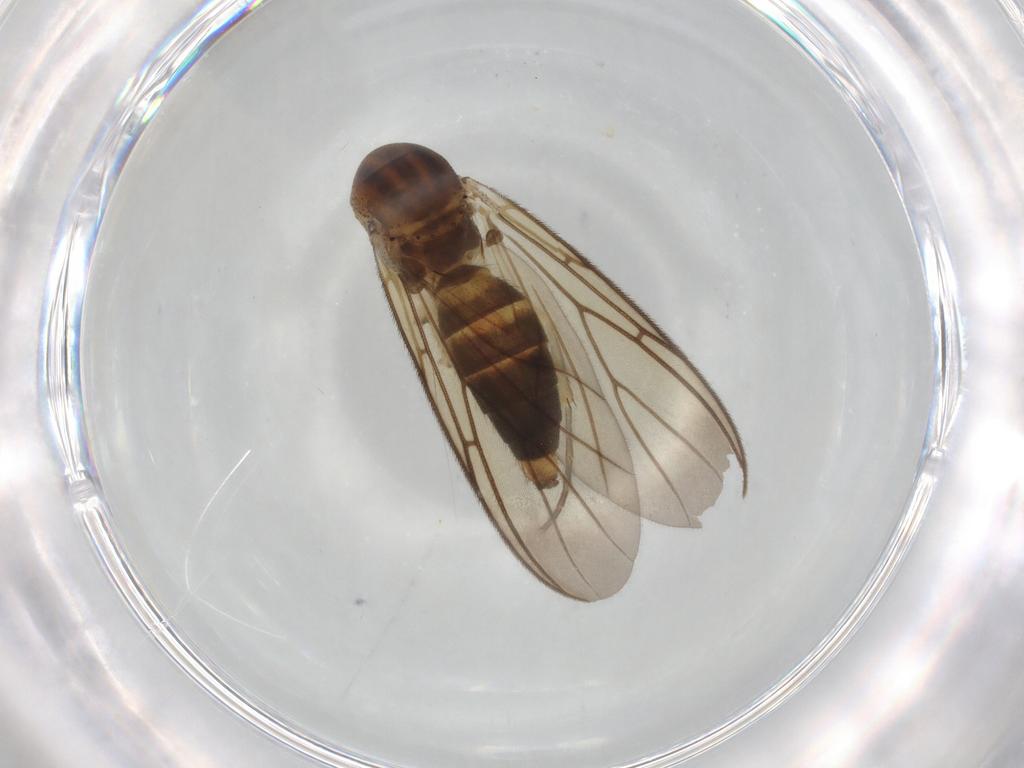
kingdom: Animalia
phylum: Arthropoda
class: Insecta
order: Diptera
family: Sciaridae
